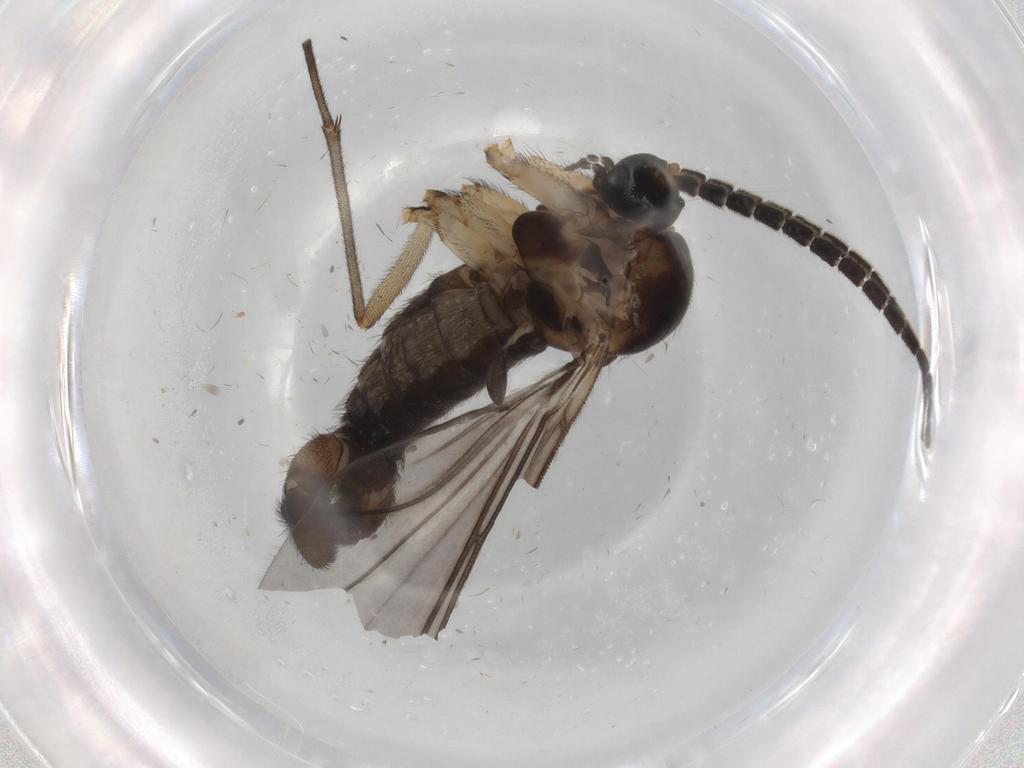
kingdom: Animalia
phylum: Arthropoda
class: Insecta
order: Diptera
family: Sciaridae
